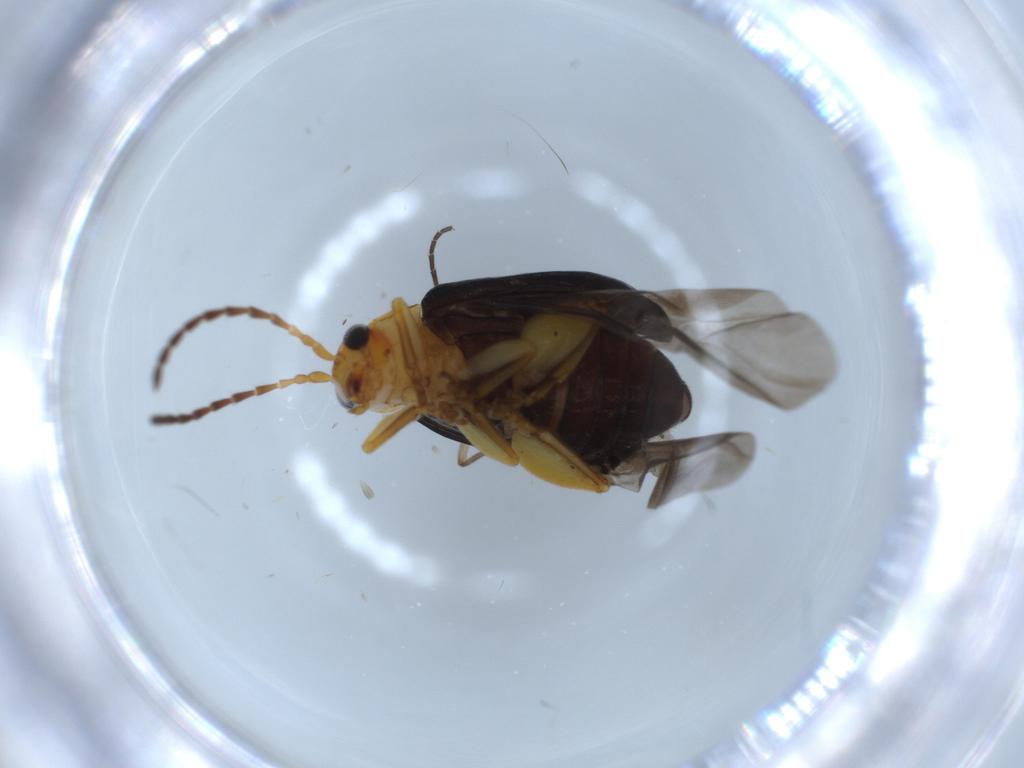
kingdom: Animalia
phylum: Arthropoda
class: Insecta
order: Coleoptera
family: Chrysomelidae
